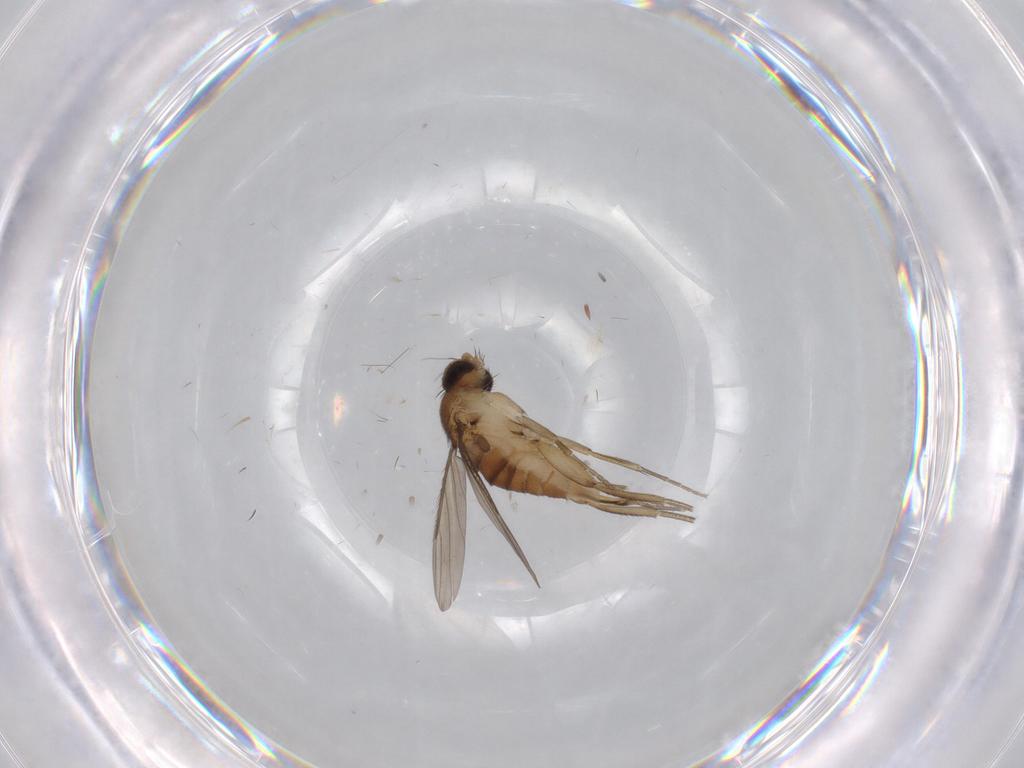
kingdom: Animalia
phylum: Arthropoda
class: Insecta
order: Diptera
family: Phoridae
